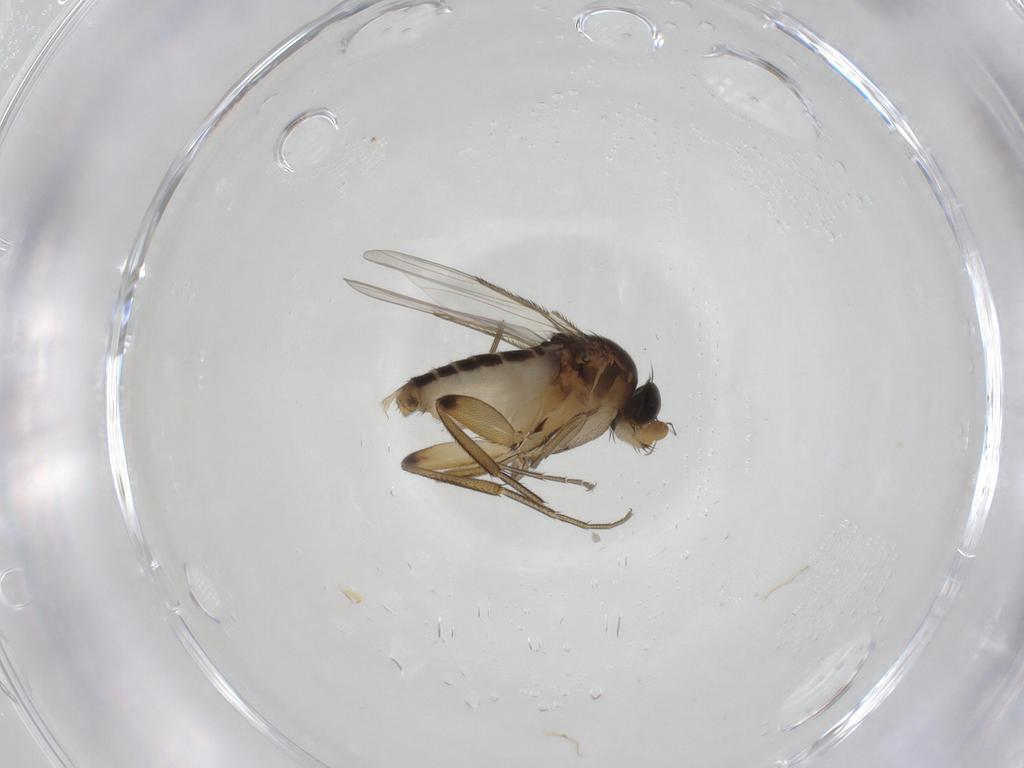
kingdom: Animalia
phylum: Arthropoda
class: Insecta
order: Diptera
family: Phoridae
